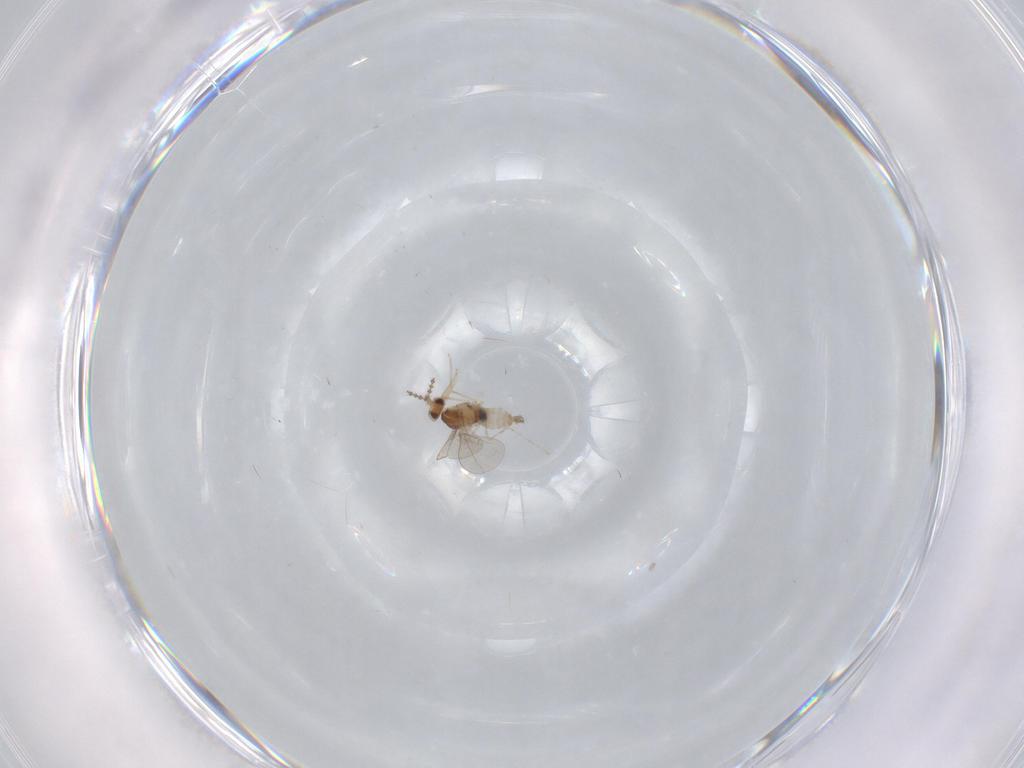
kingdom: Animalia
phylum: Arthropoda
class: Insecta
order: Diptera
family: Cecidomyiidae
